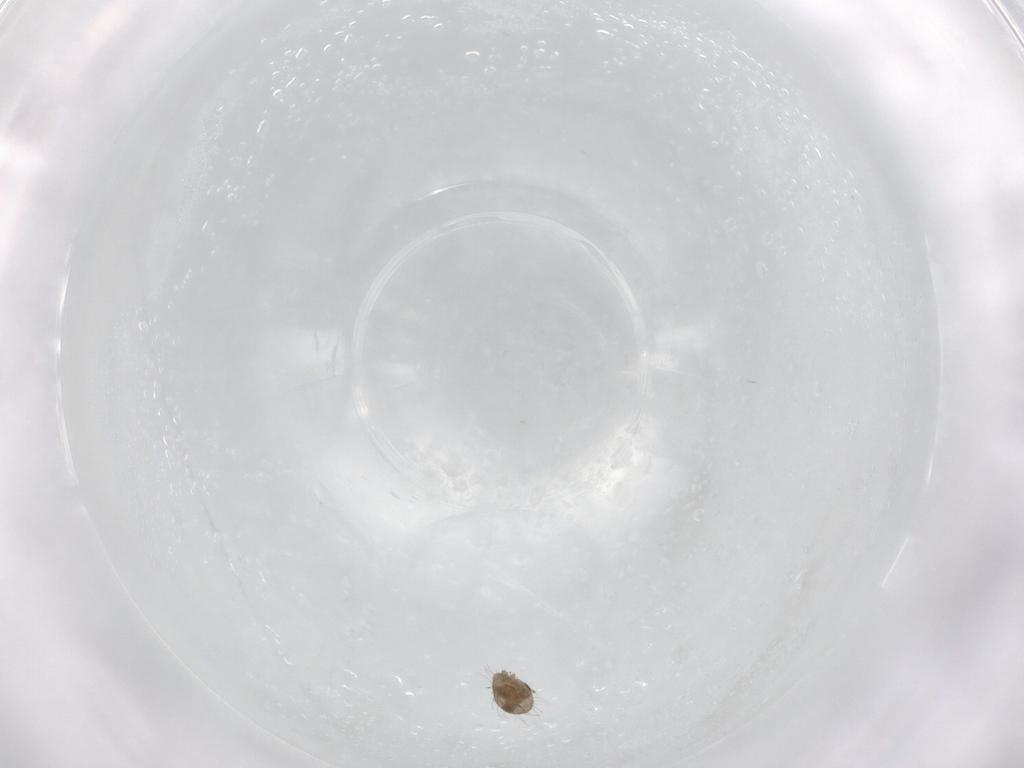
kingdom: Animalia
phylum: Arthropoda
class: Arachnida
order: Sarcoptiformes
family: Humerobatidae
